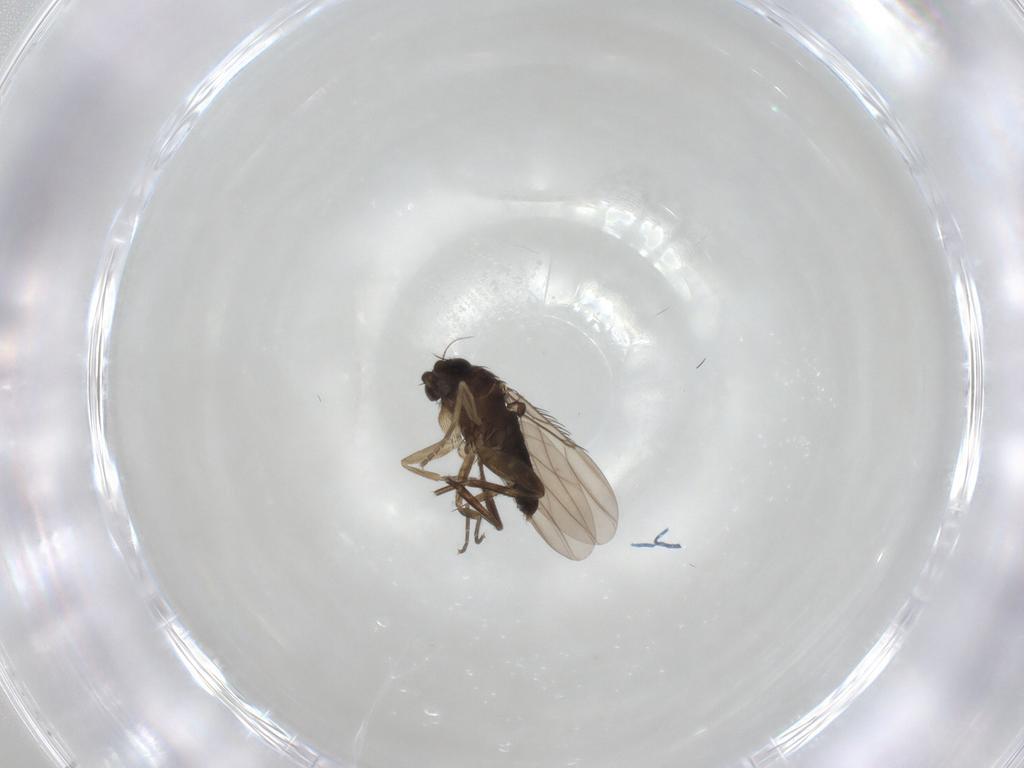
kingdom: Animalia
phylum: Arthropoda
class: Insecta
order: Diptera
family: Phoridae
